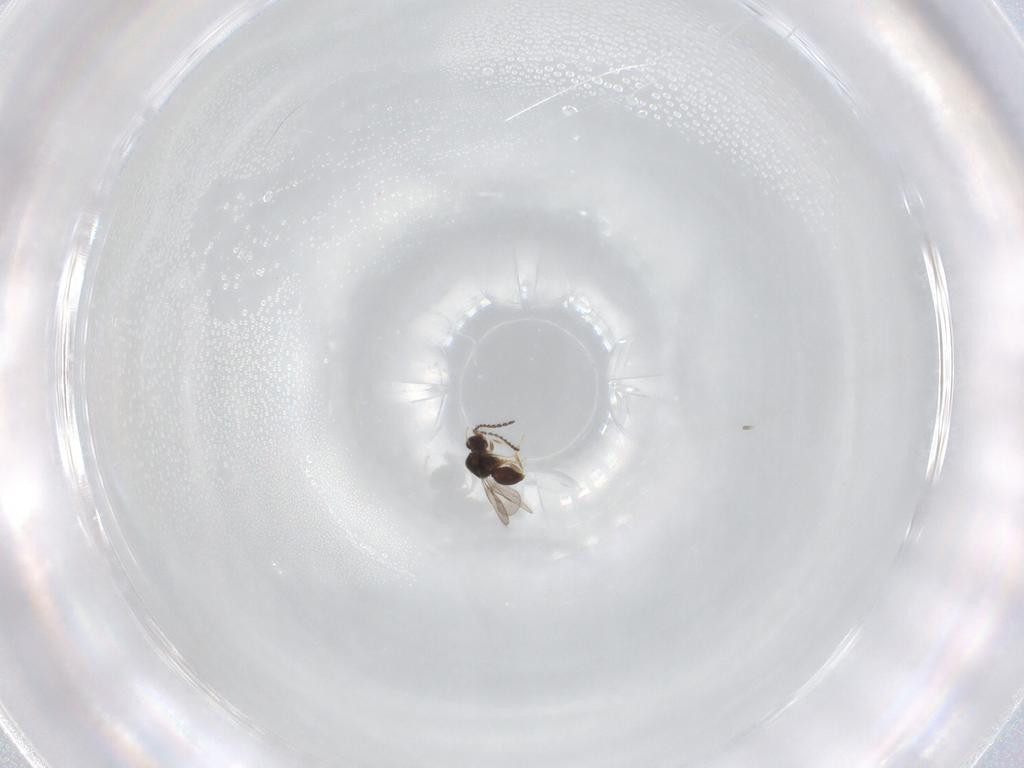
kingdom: Animalia
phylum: Arthropoda
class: Insecta
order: Hymenoptera
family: Ceraphronidae
